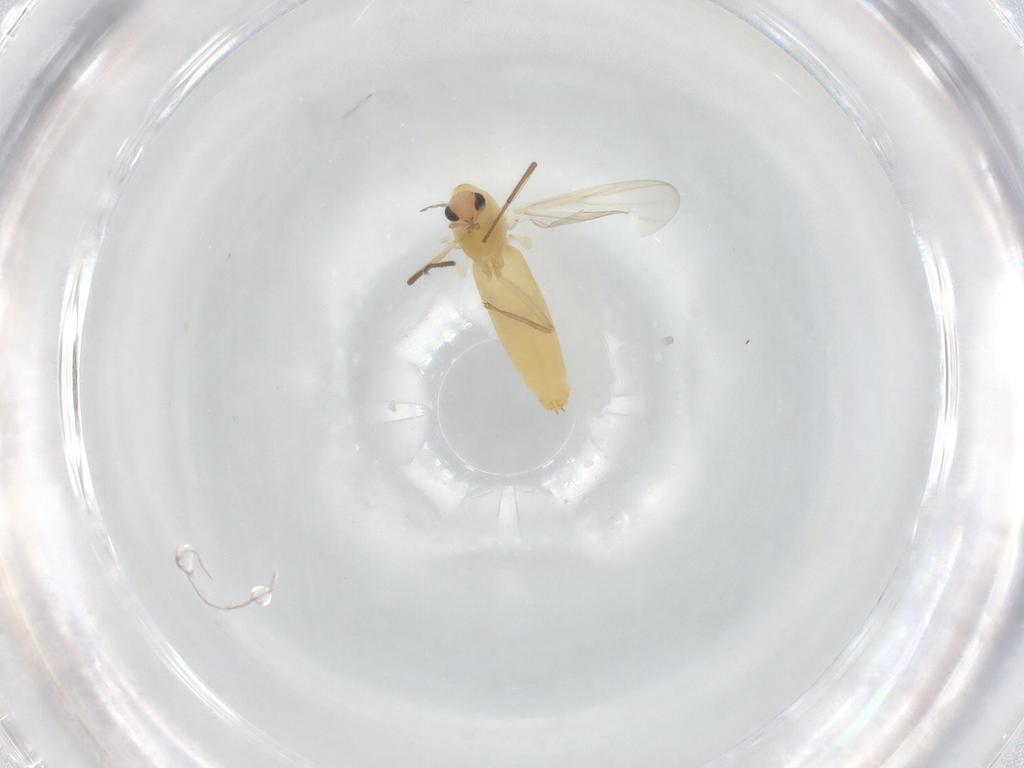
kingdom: Animalia
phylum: Arthropoda
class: Insecta
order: Diptera
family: Chironomidae
